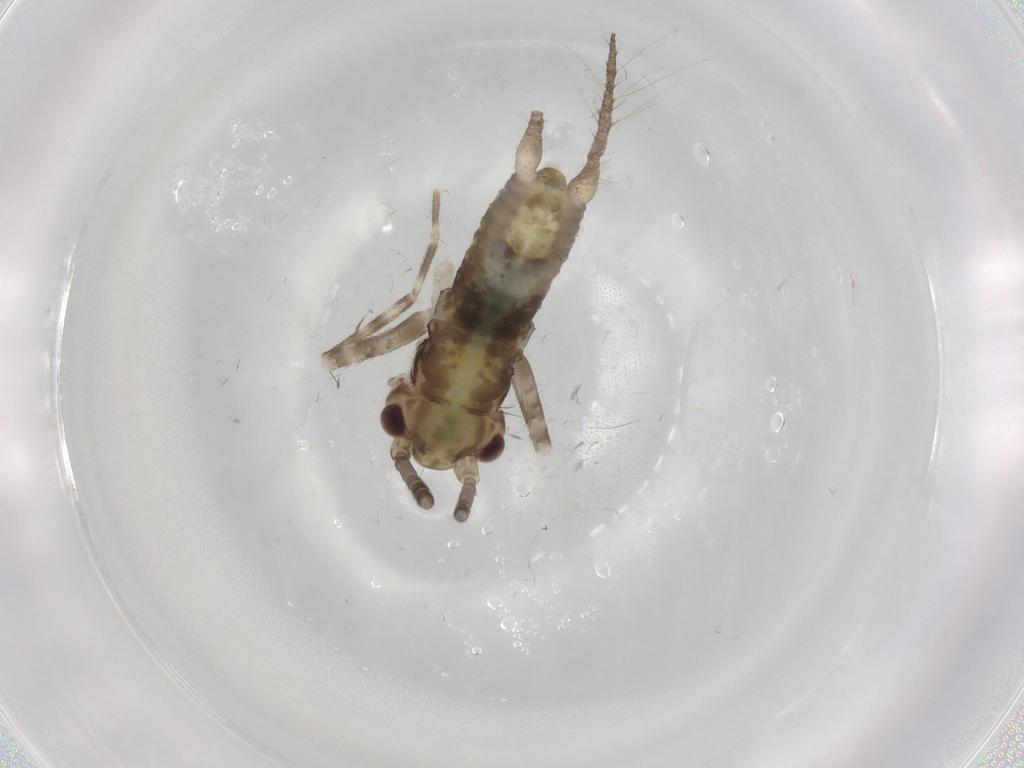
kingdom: Animalia
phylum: Arthropoda
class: Insecta
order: Orthoptera
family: Gryllidae
